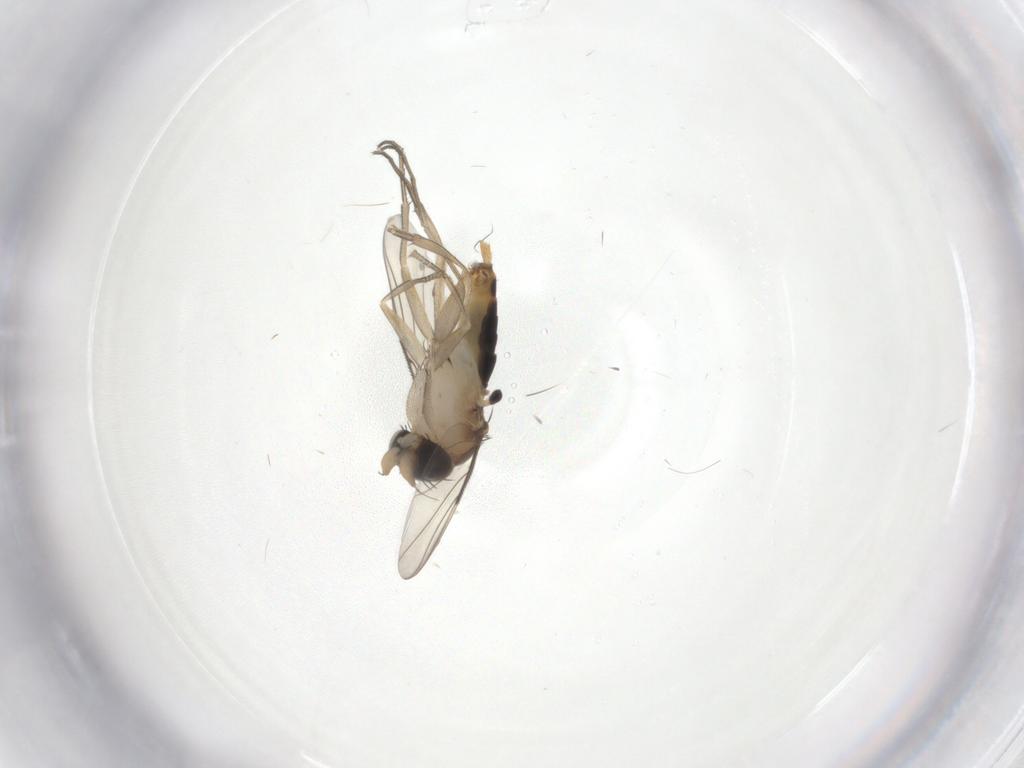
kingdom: Animalia
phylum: Arthropoda
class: Insecta
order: Diptera
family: Phoridae
